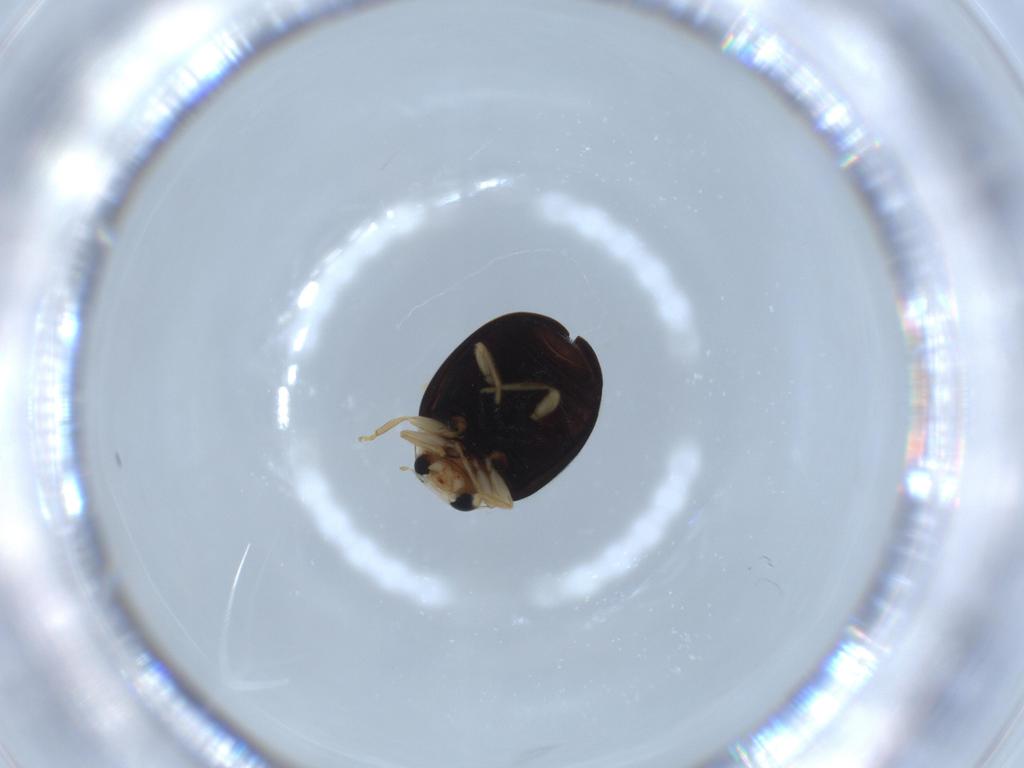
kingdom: Animalia
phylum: Arthropoda
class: Insecta
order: Coleoptera
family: Coccinellidae
